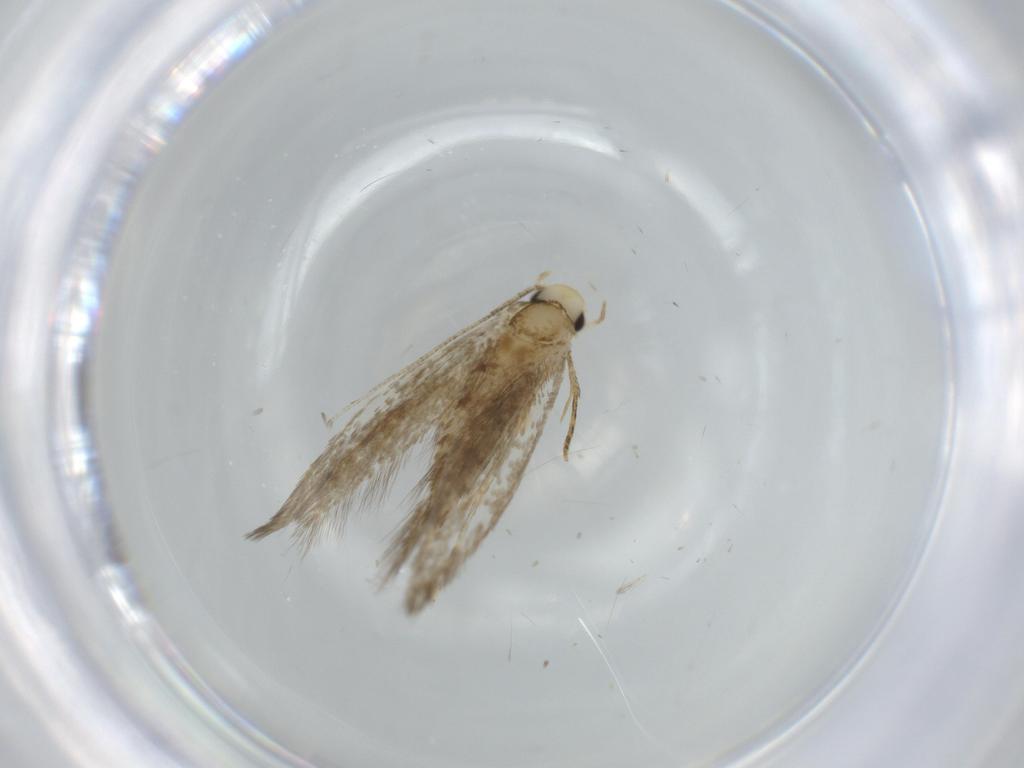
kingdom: Animalia
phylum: Arthropoda
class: Insecta
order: Lepidoptera
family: Tineidae
